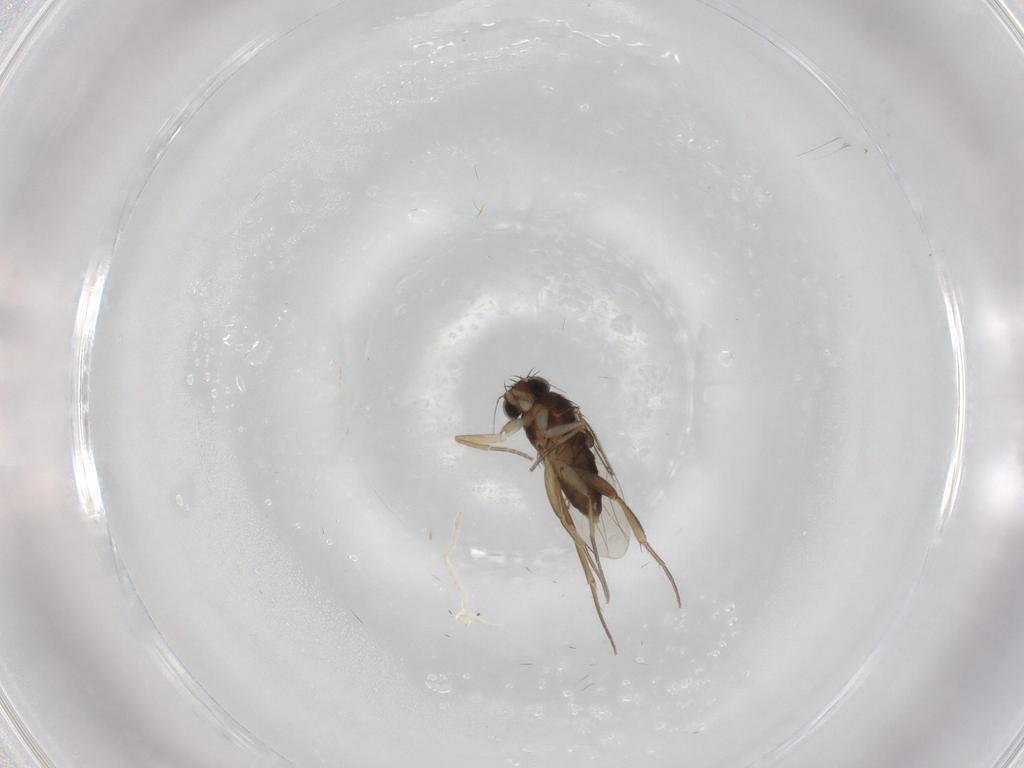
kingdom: Animalia
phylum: Arthropoda
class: Insecta
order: Diptera
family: Phoridae
